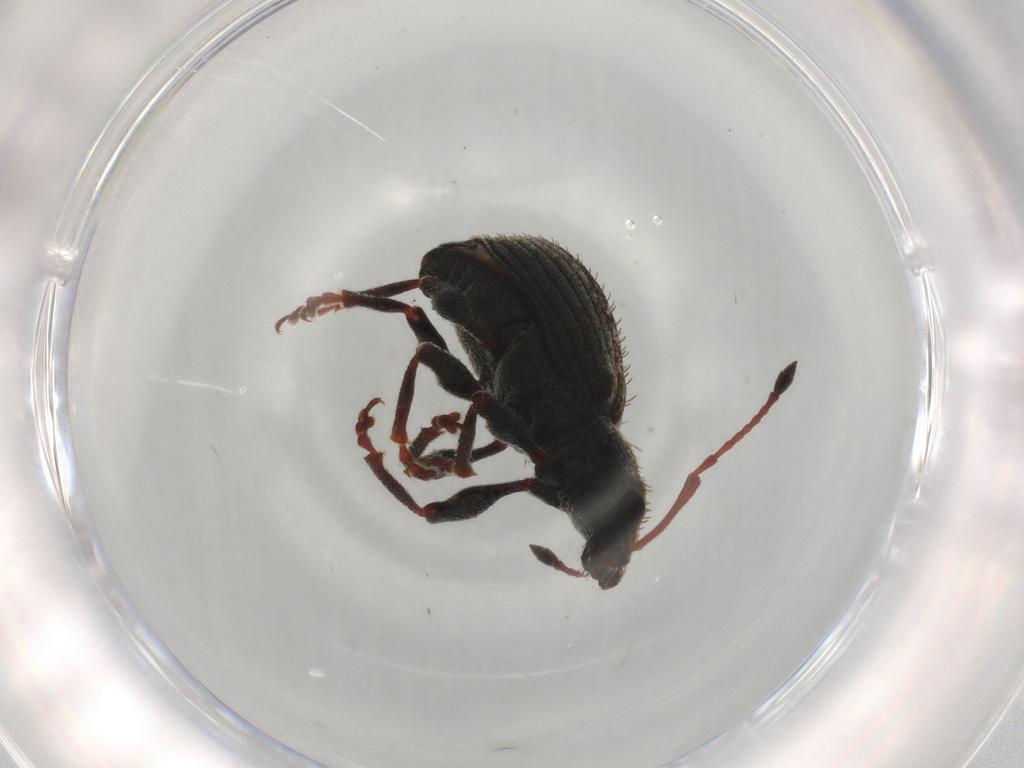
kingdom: Animalia
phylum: Arthropoda
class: Insecta
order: Coleoptera
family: Curculionidae
